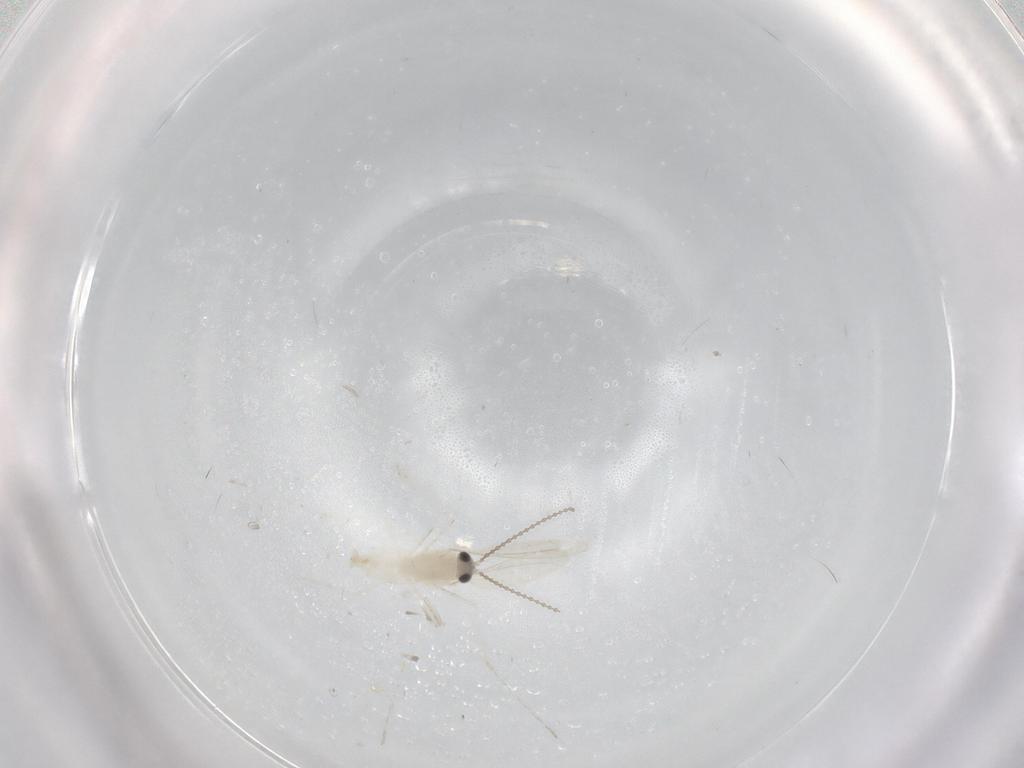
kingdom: Animalia
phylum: Arthropoda
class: Insecta
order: Diptera
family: Cecidomyiidae
